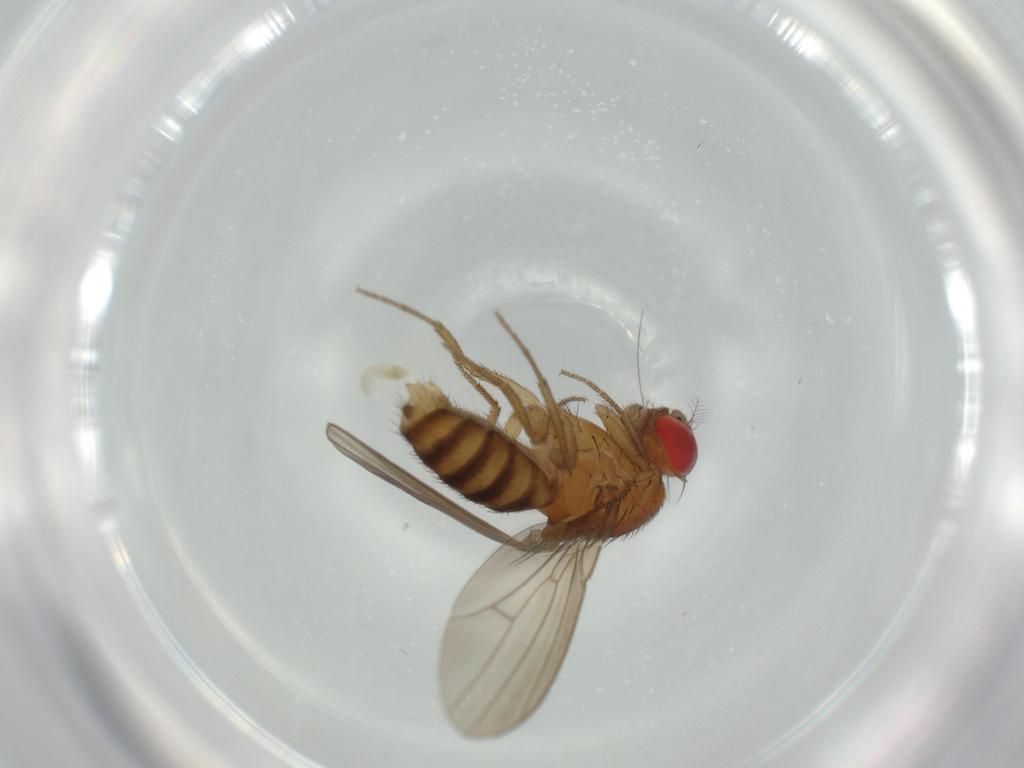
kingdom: Animalia
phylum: Arthropoda
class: Insecta
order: Diptera
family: Drosophilidae
